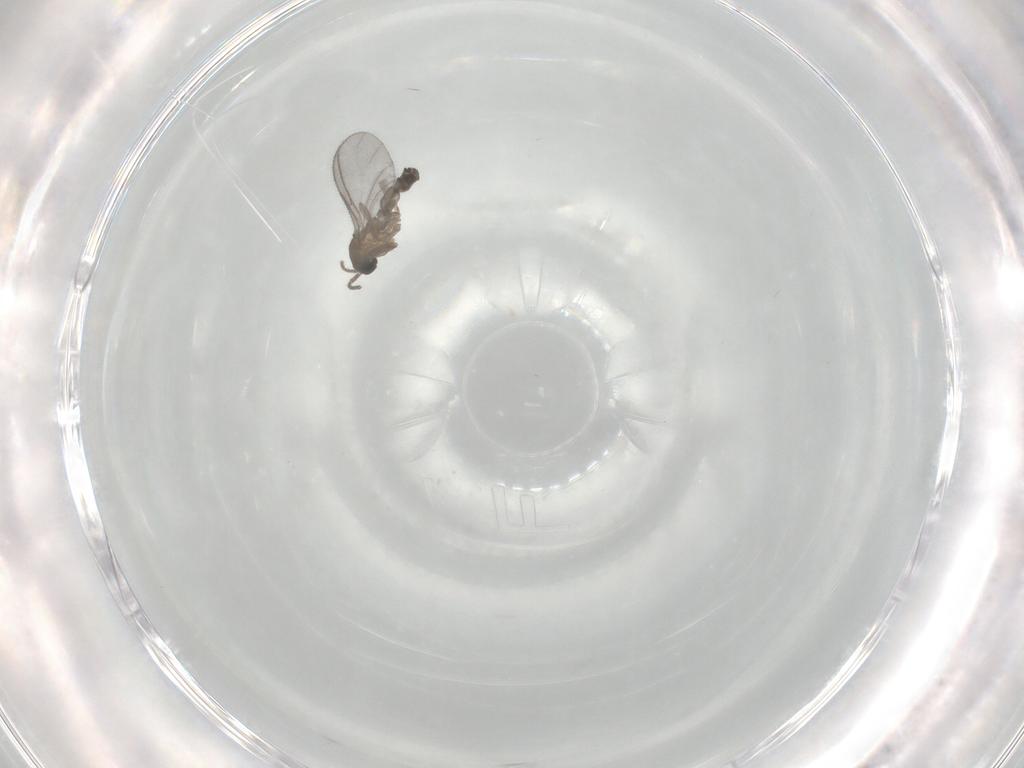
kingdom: Animalia
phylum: Arthropoda
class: Insecta
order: Diptera
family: Sciaridae
